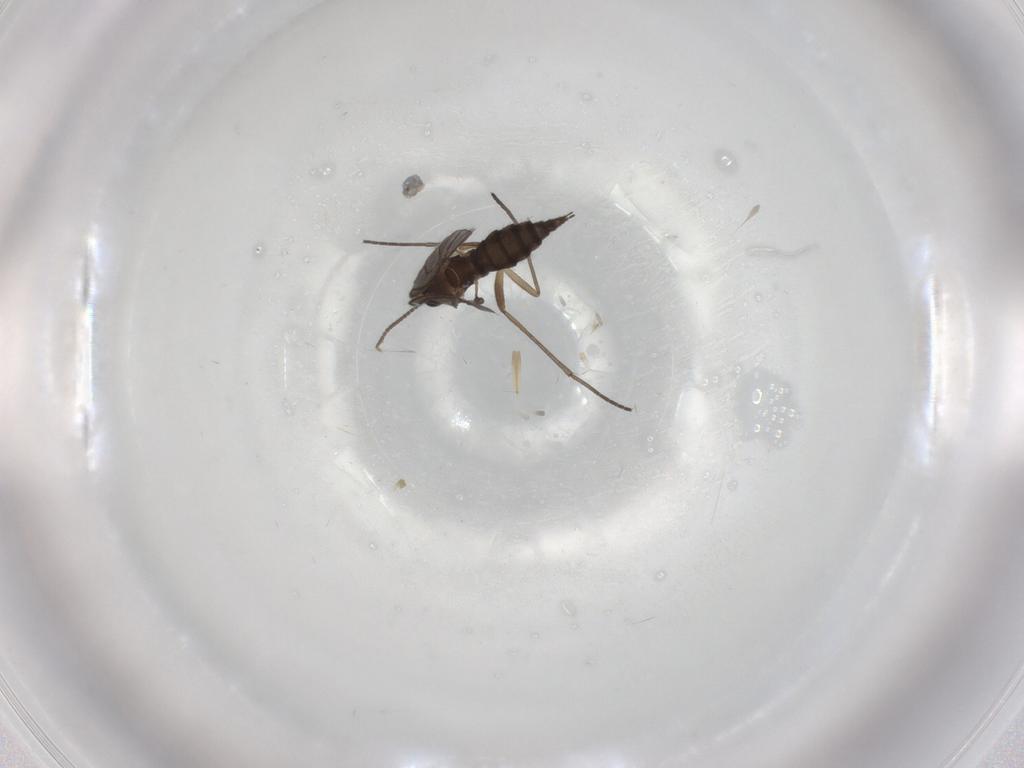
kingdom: Animalia
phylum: Arthropoda
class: Insecta
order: Diptera
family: Sciaridae
